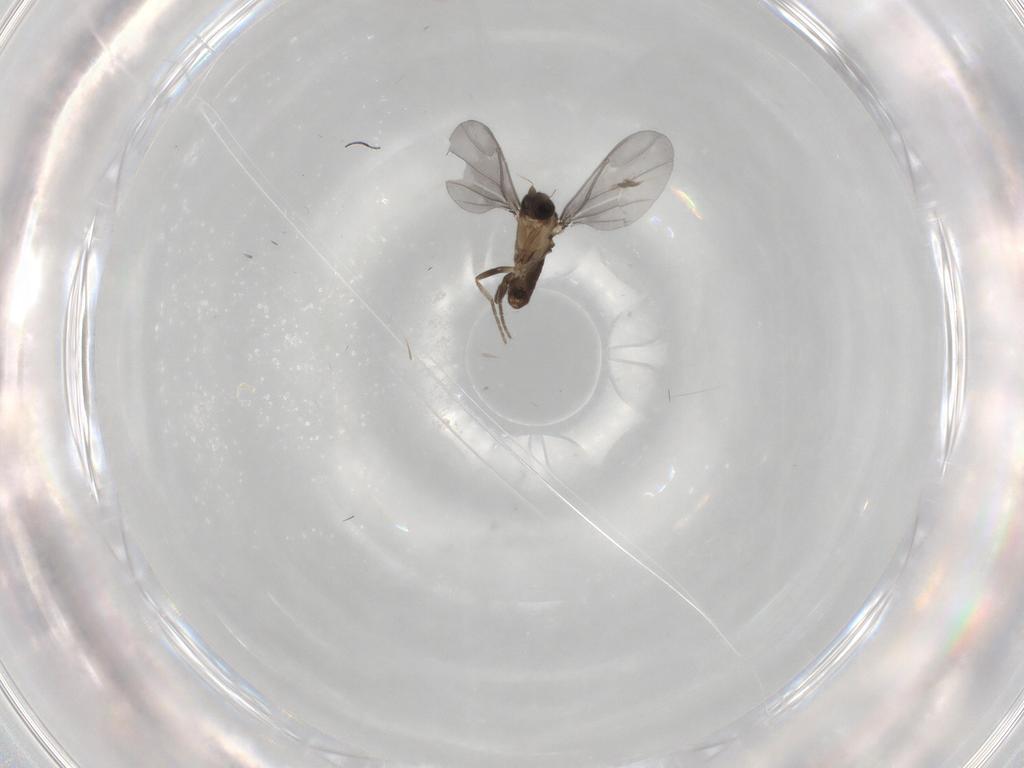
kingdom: Animalia
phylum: Arthropoda
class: Insecta
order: Diptera
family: Phoridae
